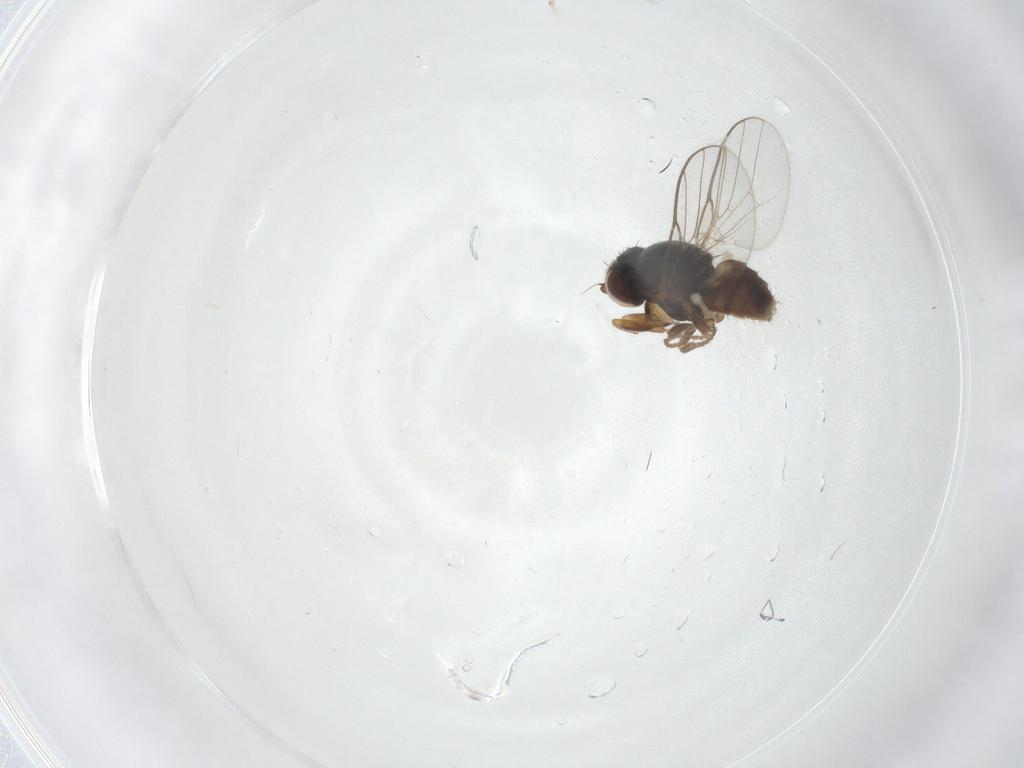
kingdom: Animalia
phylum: Arthropoda
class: Insecta
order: Diptera
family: Chloropidae
